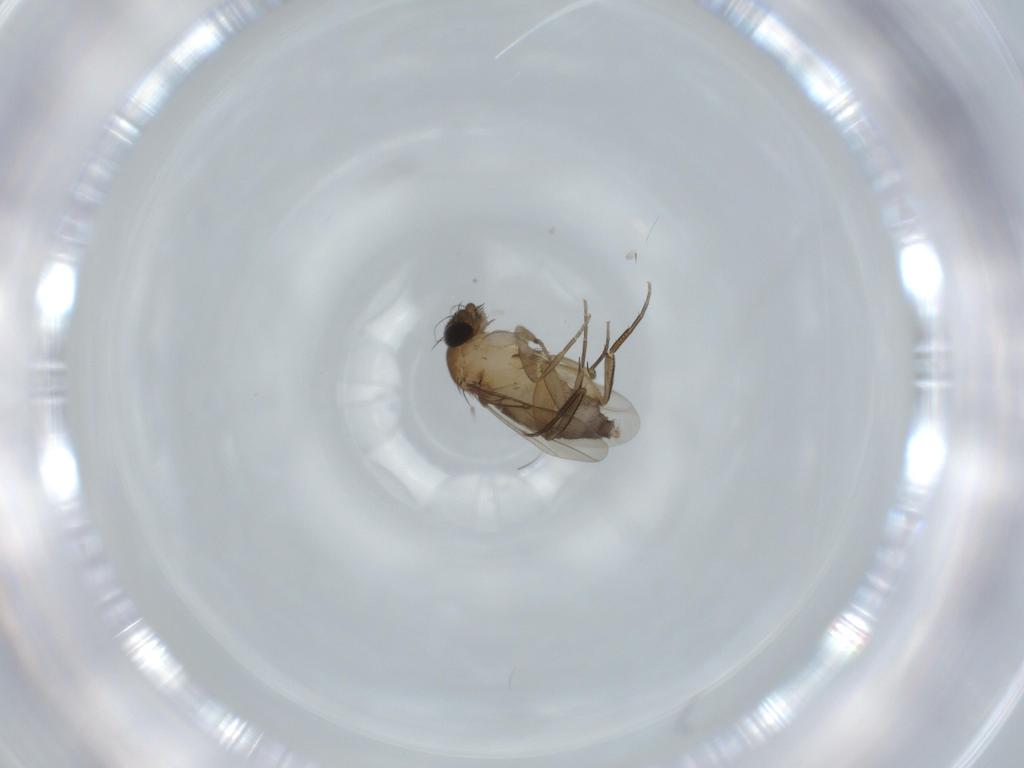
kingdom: Animalia
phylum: Arthropoda
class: Insecta
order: Diptera
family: Phoridae
